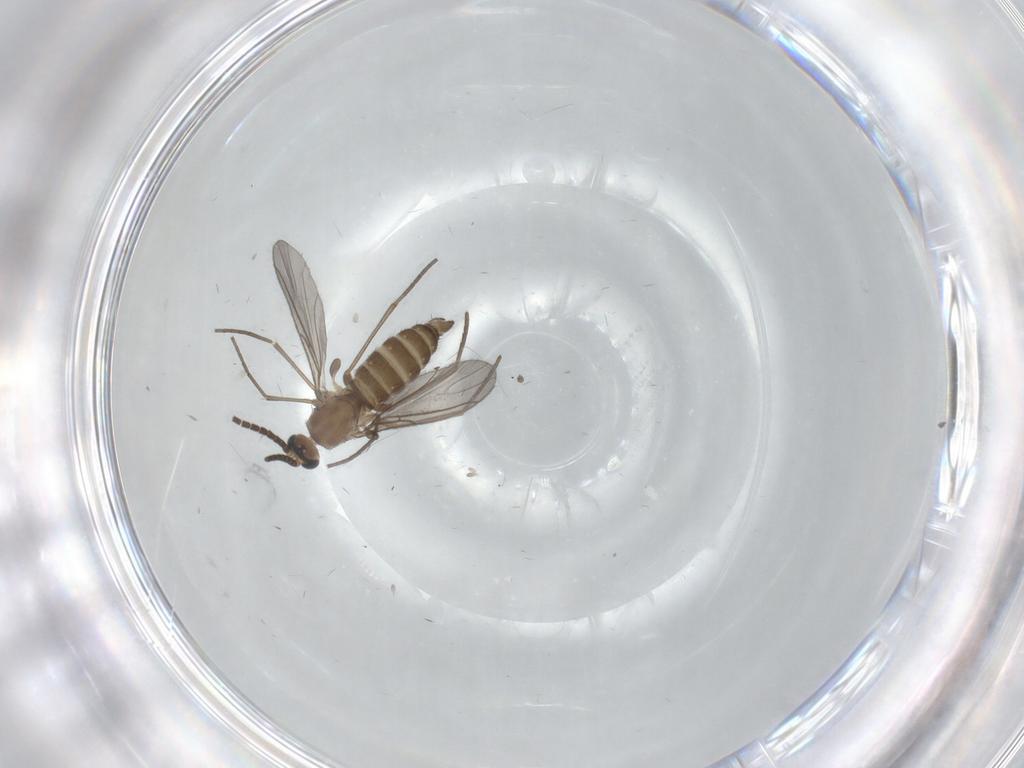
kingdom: Animalia
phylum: Arthropoda
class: Insecta
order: Diptera
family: Sciaridae
